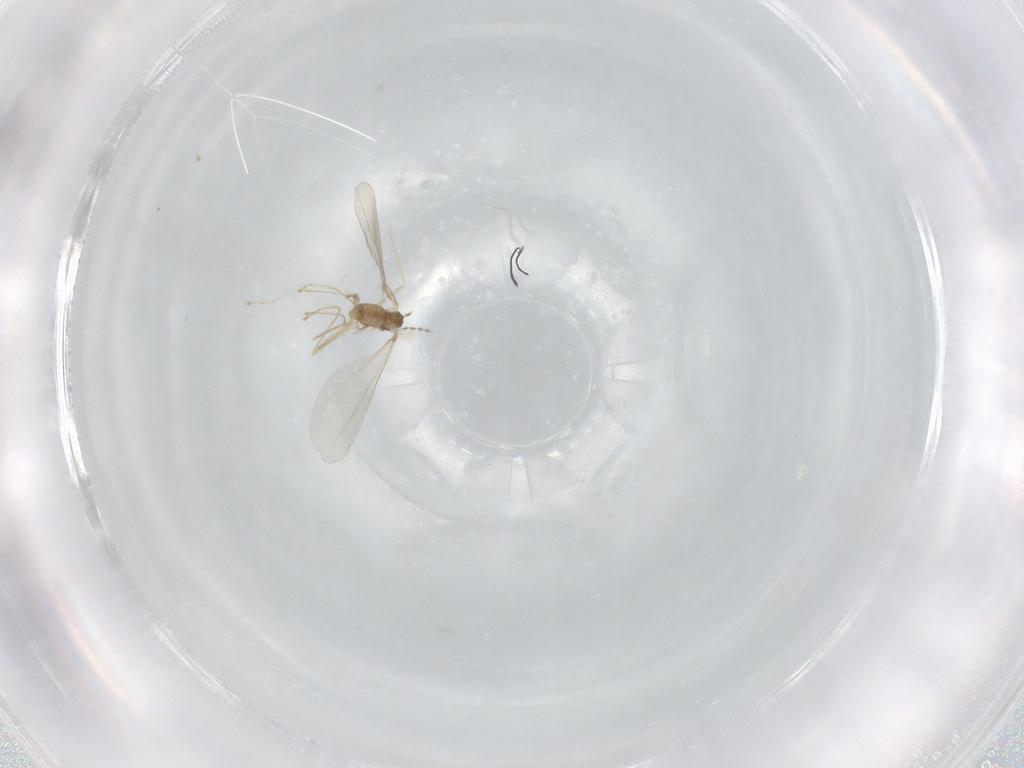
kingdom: Animalia
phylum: Arthropoda
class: Insecta
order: Diptera
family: Cecidomyiidae
